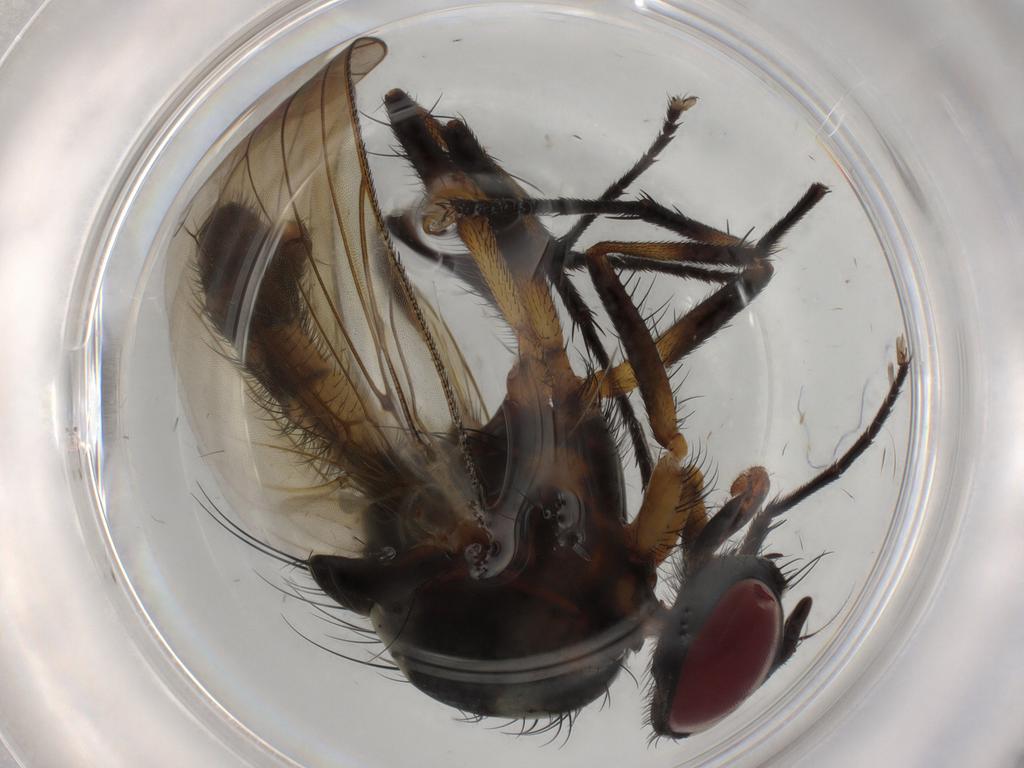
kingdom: Animalia
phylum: Arthropoda
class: Insecta
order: Diptera
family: Anthomyiidae
